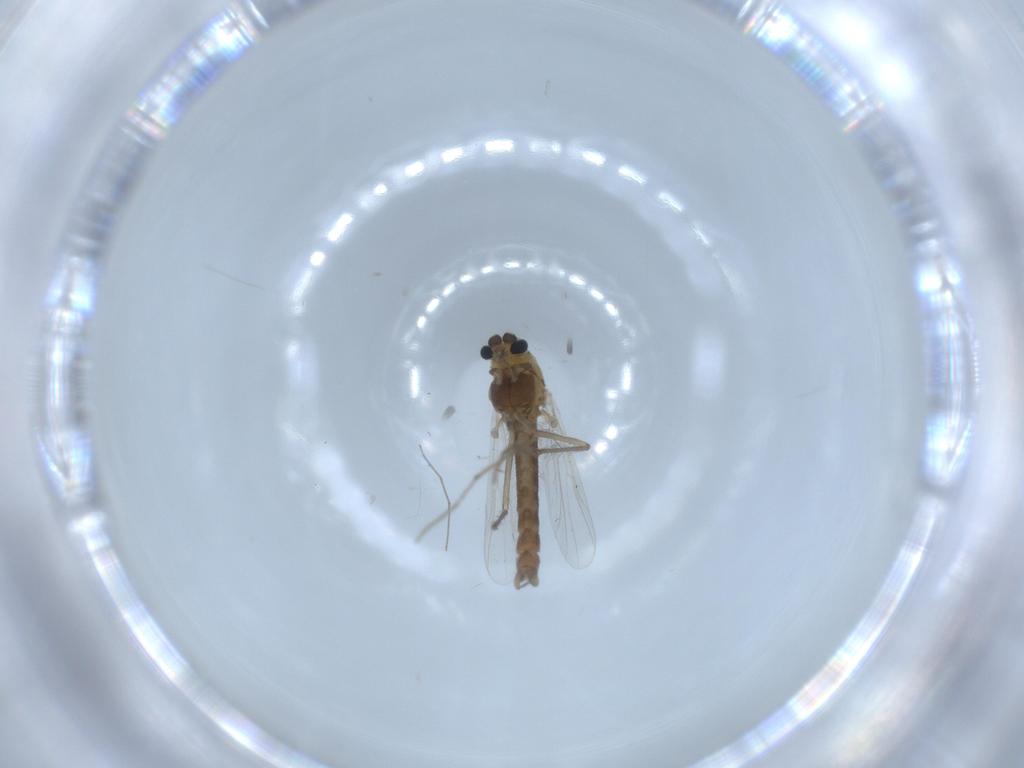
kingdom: Animalia
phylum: Arthropoda
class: Insecta
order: Diptera
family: Chironomidae
